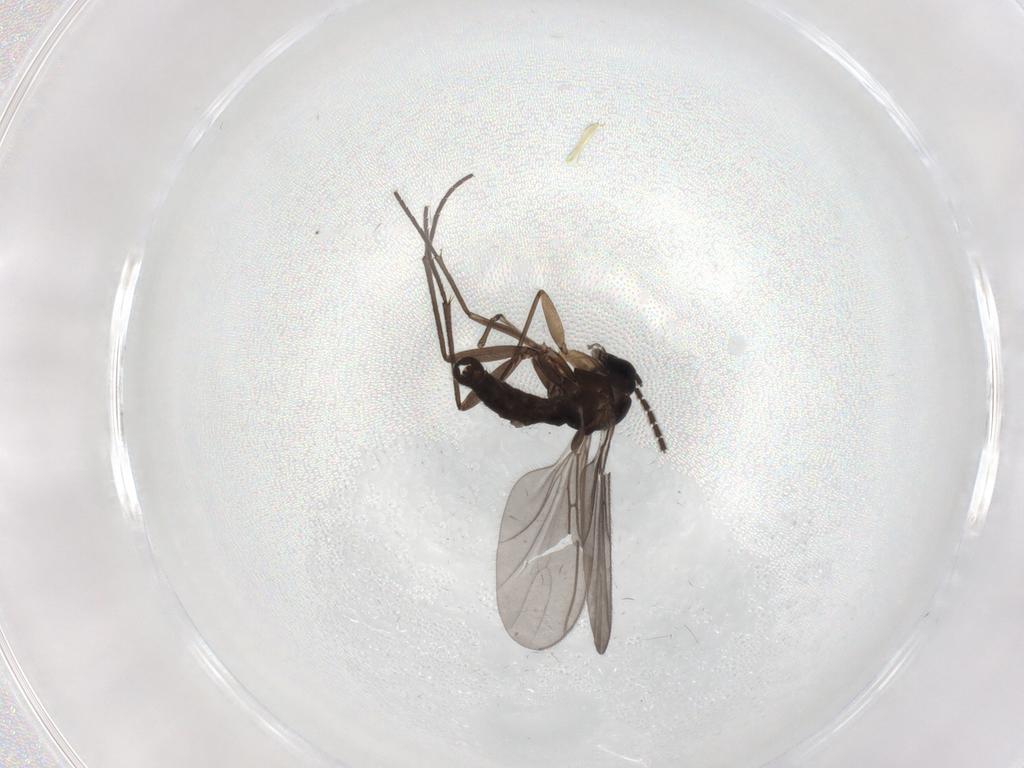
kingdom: Animalia
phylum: Arthropoda
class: Insecta
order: Diptera
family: Psychodidae
